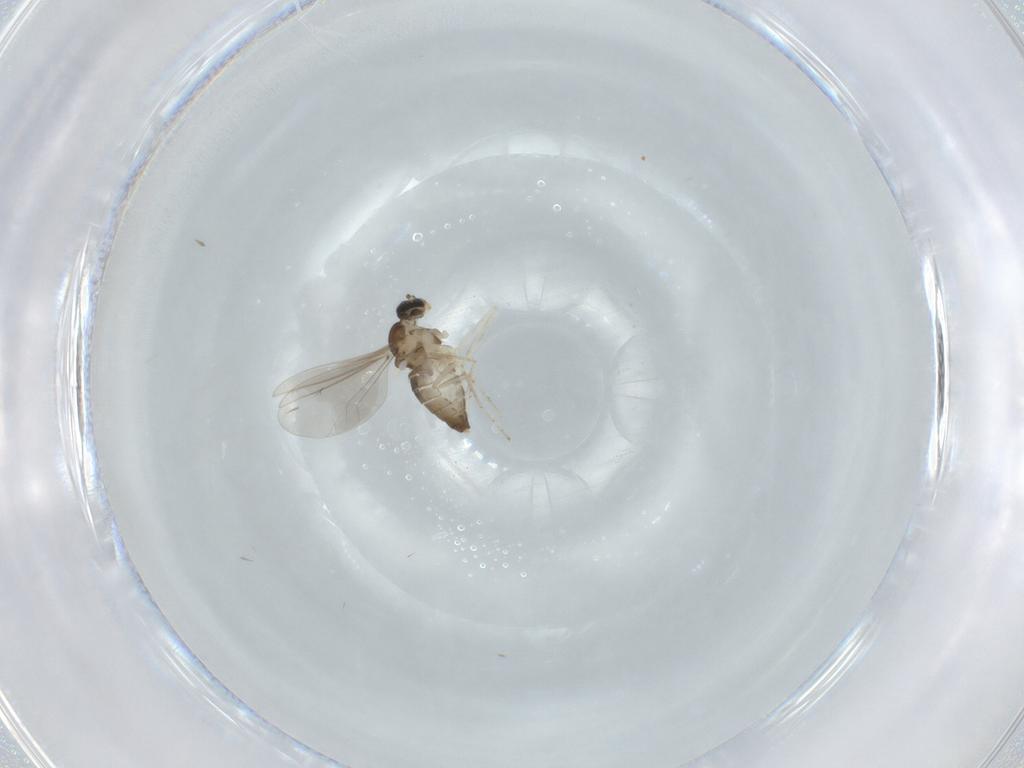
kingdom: Animalia
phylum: Arthropoda
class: Insecta
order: Diptera
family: Cecidomyiidae
